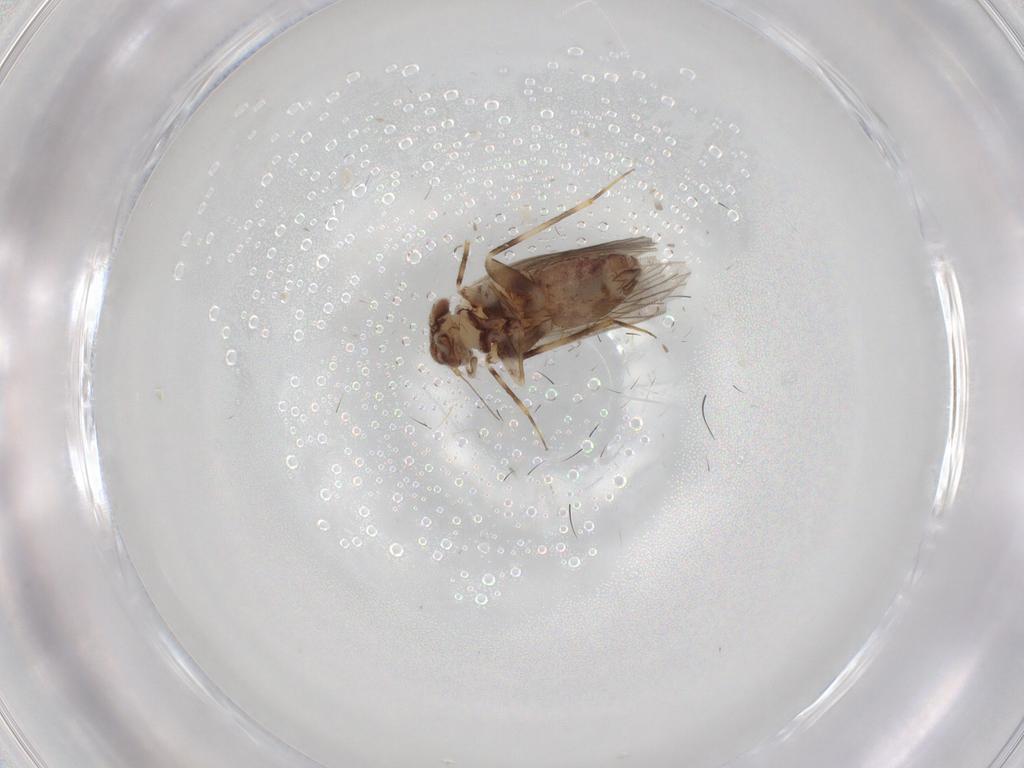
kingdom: Animalia
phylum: Arthropoda
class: Insecta
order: Psocodea
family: Lepidopsocidae
